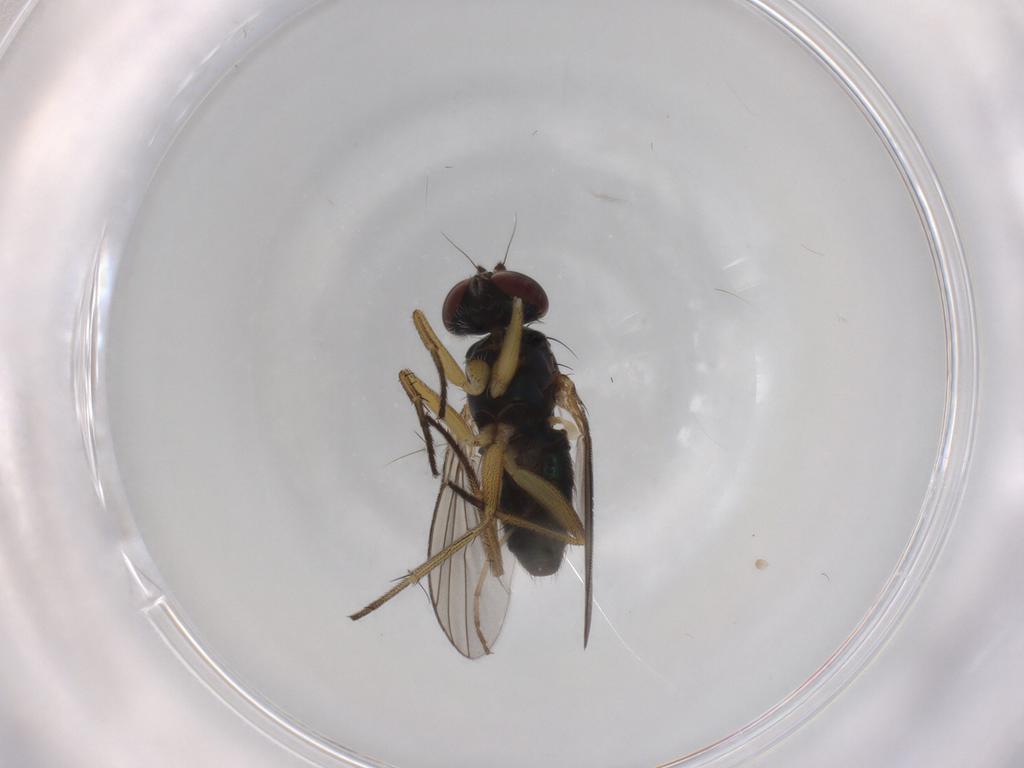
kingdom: Animalia
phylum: Arthropoda
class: Insecta
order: Diptera
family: Dolichopodidae
